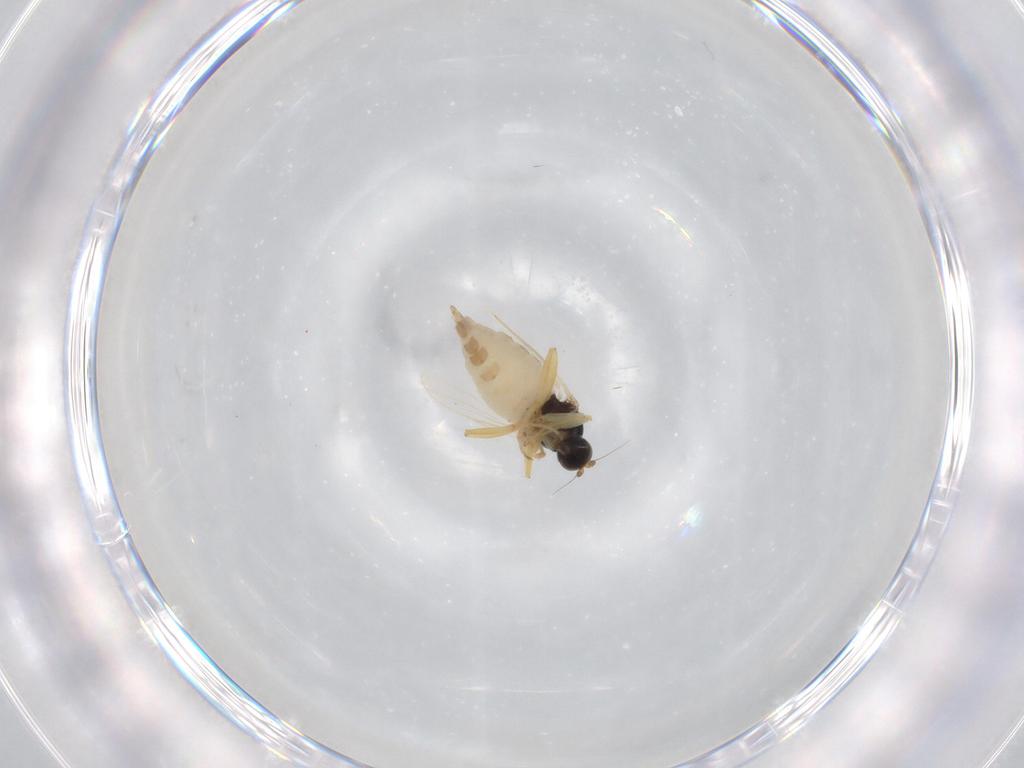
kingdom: Animalia
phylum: Arthropoda
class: Insecta
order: Diptera
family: Hybotidae
